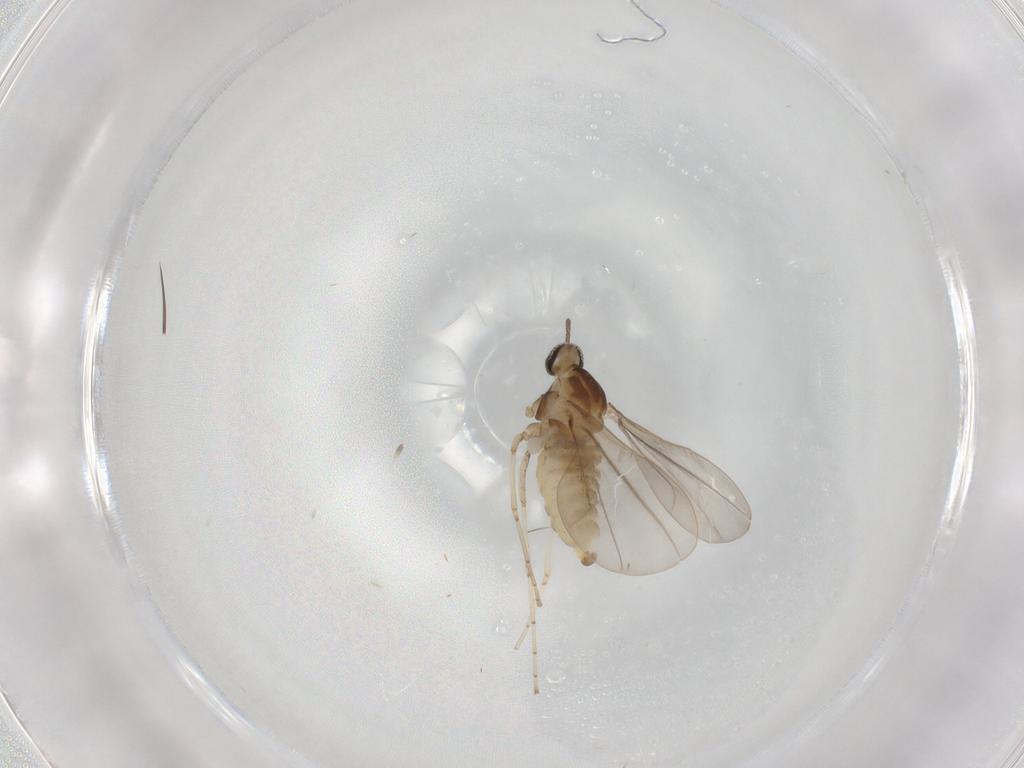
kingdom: Animalia
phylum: Arthropoda
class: Insecta
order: Diptera
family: Cecidomyiidae
